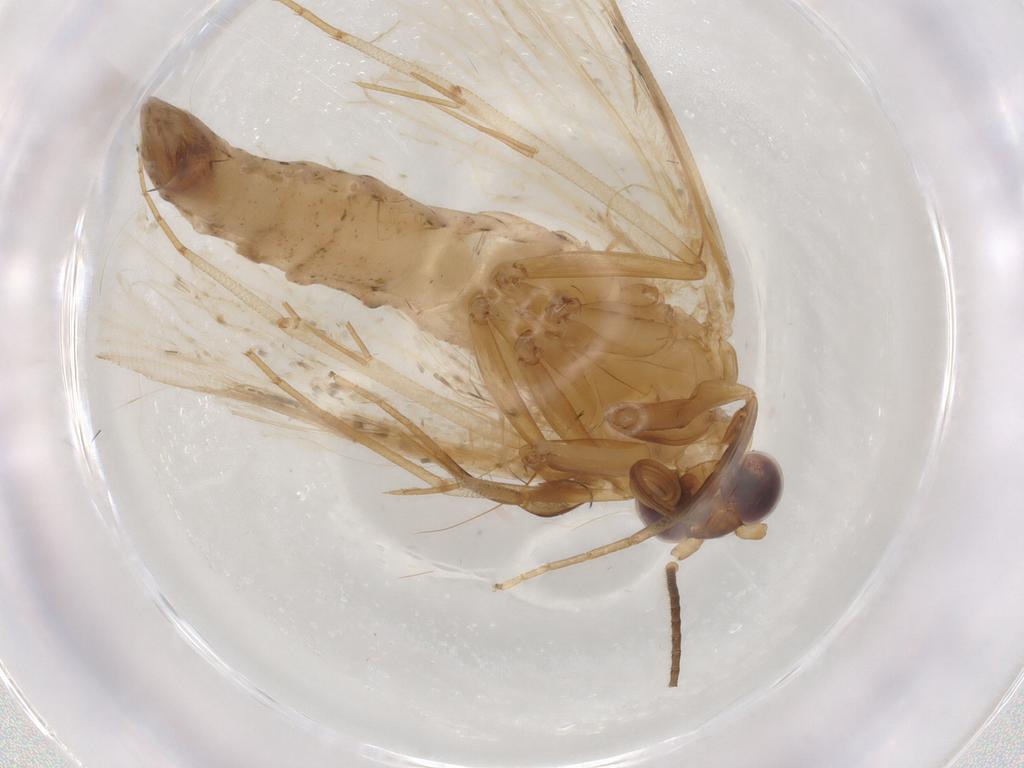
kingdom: Animalia
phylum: Arthropoda
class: Insecta
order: Lepidoptera
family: Erebidae
